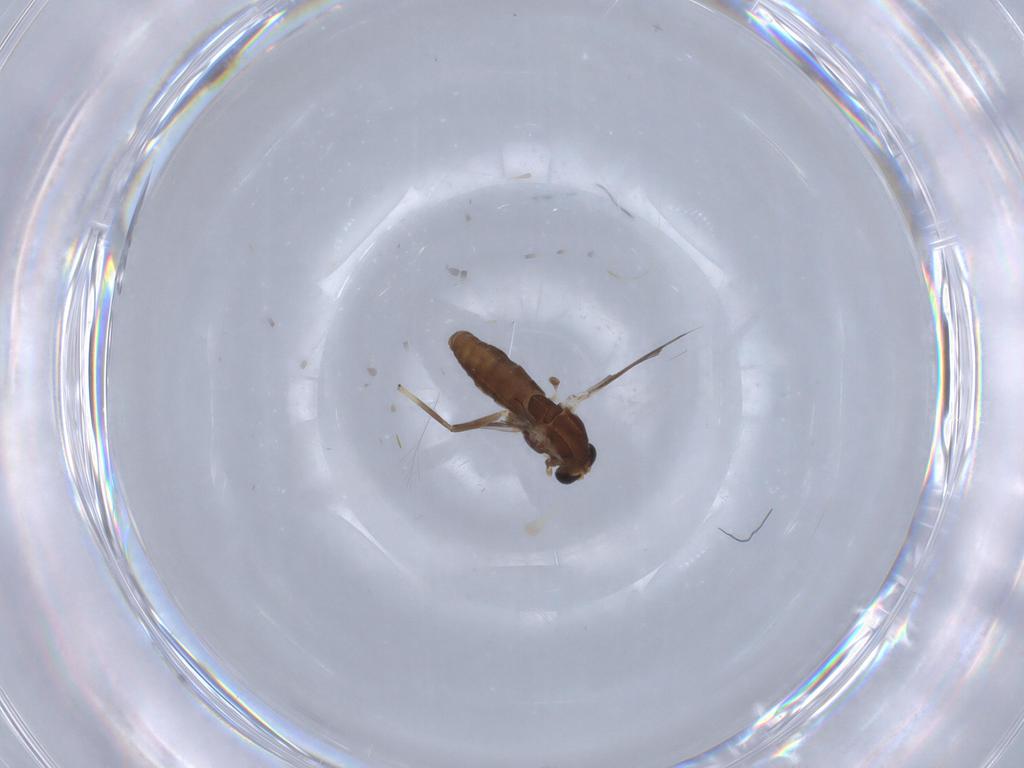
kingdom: Animalia
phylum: Arthropoda
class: Insecta
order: Diptera
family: Chironomidae
